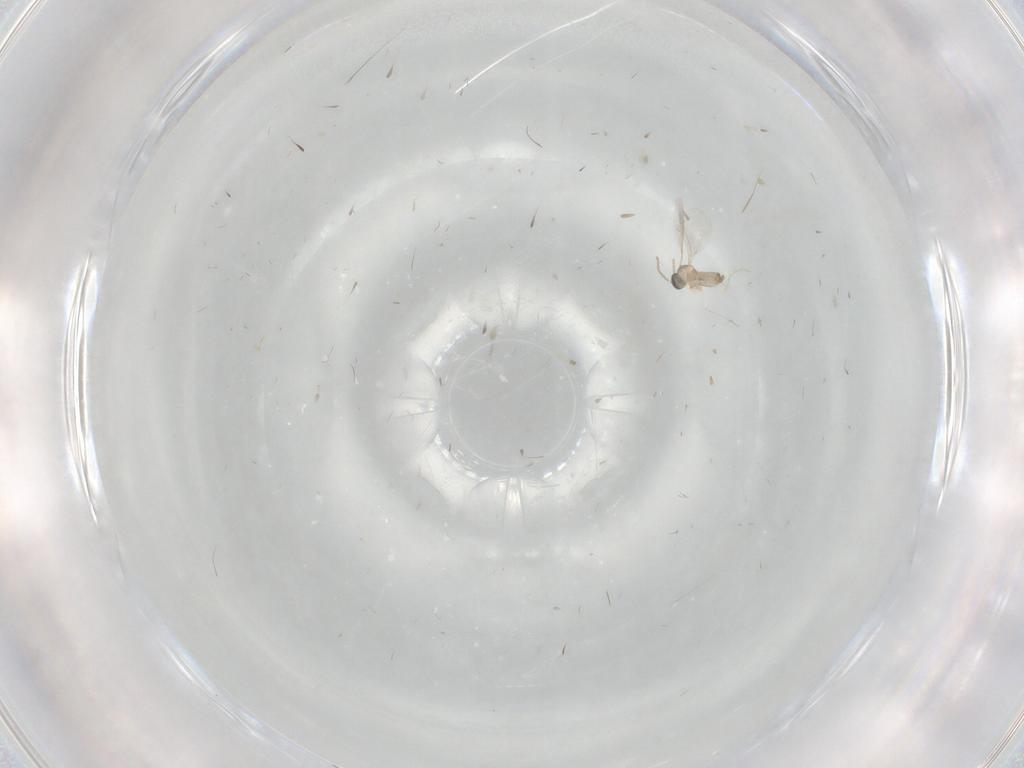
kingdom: Animalia
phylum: Arthropoda
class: Insecta
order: Diptera
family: Cecidomyiidae
